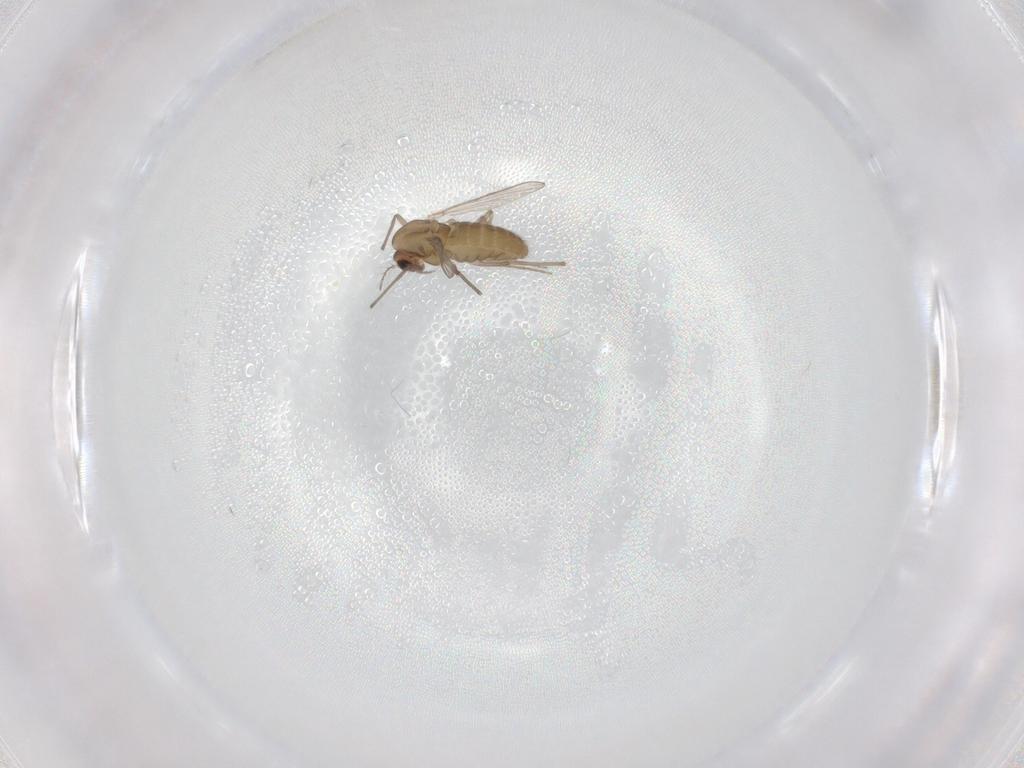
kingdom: Animalia
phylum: Arthropoda
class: Insecta
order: Diptera
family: Chironomidae
